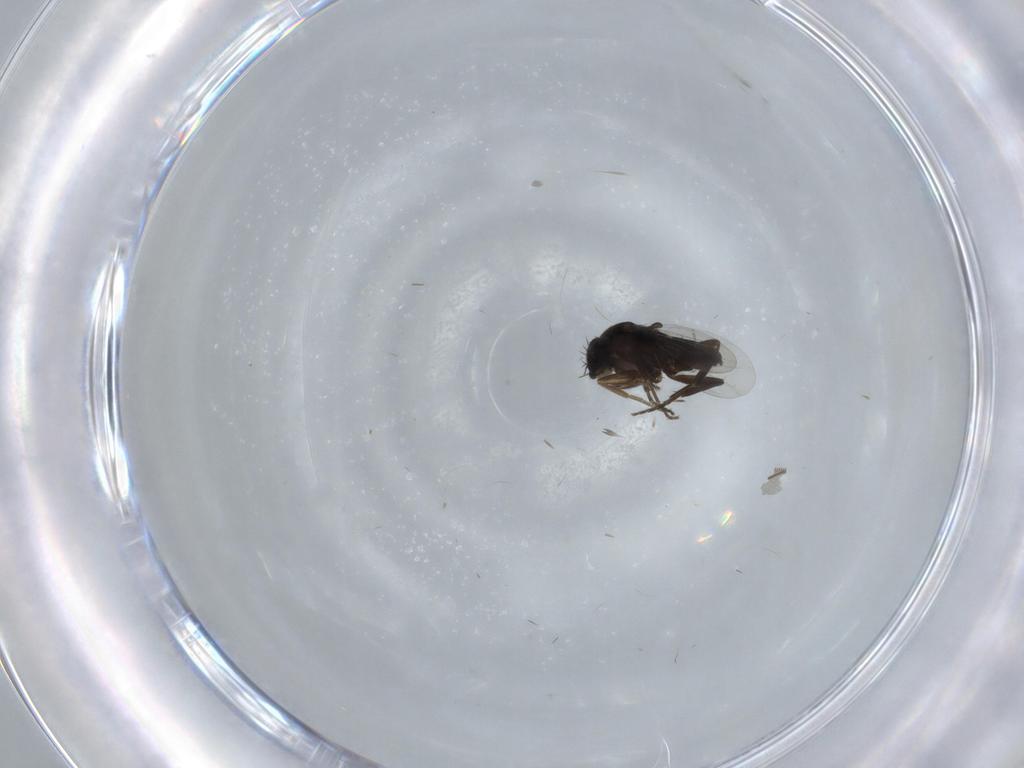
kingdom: Animalia
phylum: Arthropoda
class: Insecta
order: Diptera
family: Phoridae
